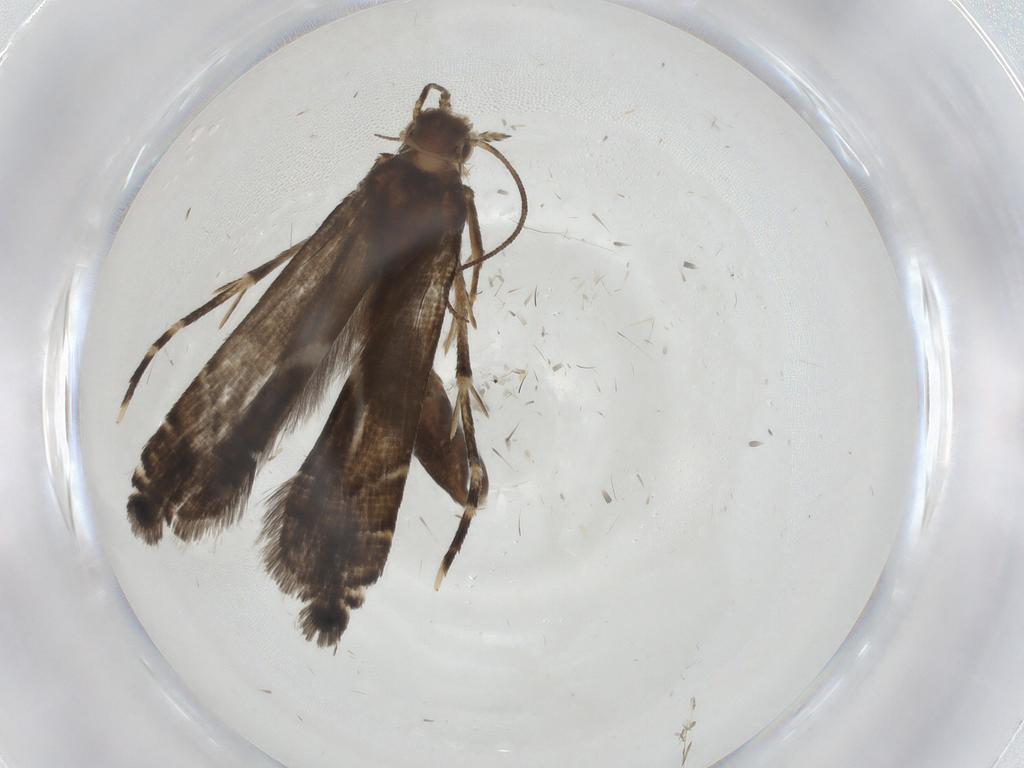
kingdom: Animalia
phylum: Arthropoda
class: Insecta
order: Lepidoptera
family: Glyphipterigidae
